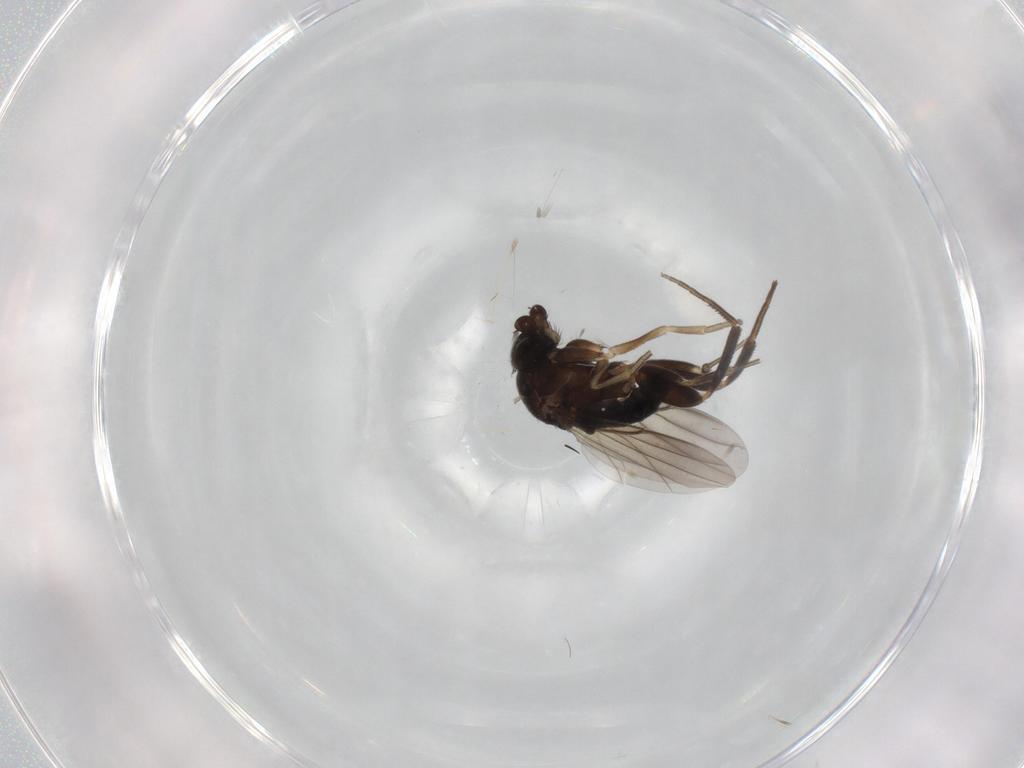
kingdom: Animalia
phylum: Arthropoda
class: Insecta
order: Diptera
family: Phoridae
